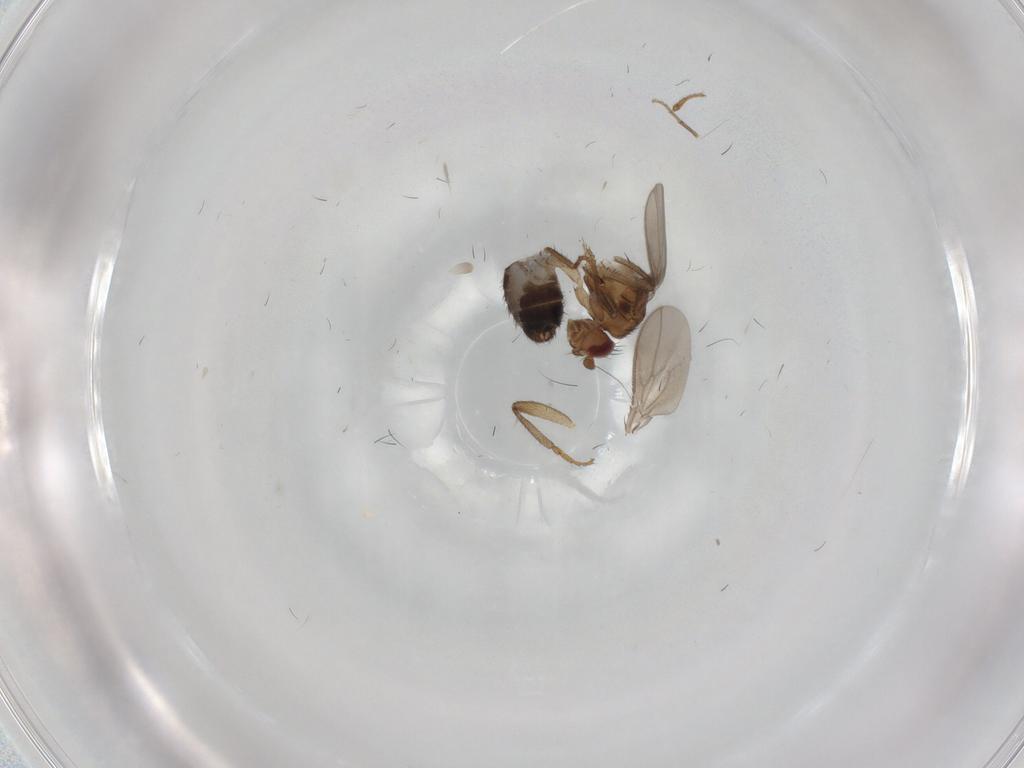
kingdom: Animalia
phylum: Arthropoda
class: Insecta
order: Diptera
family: Sphaeroceridae
